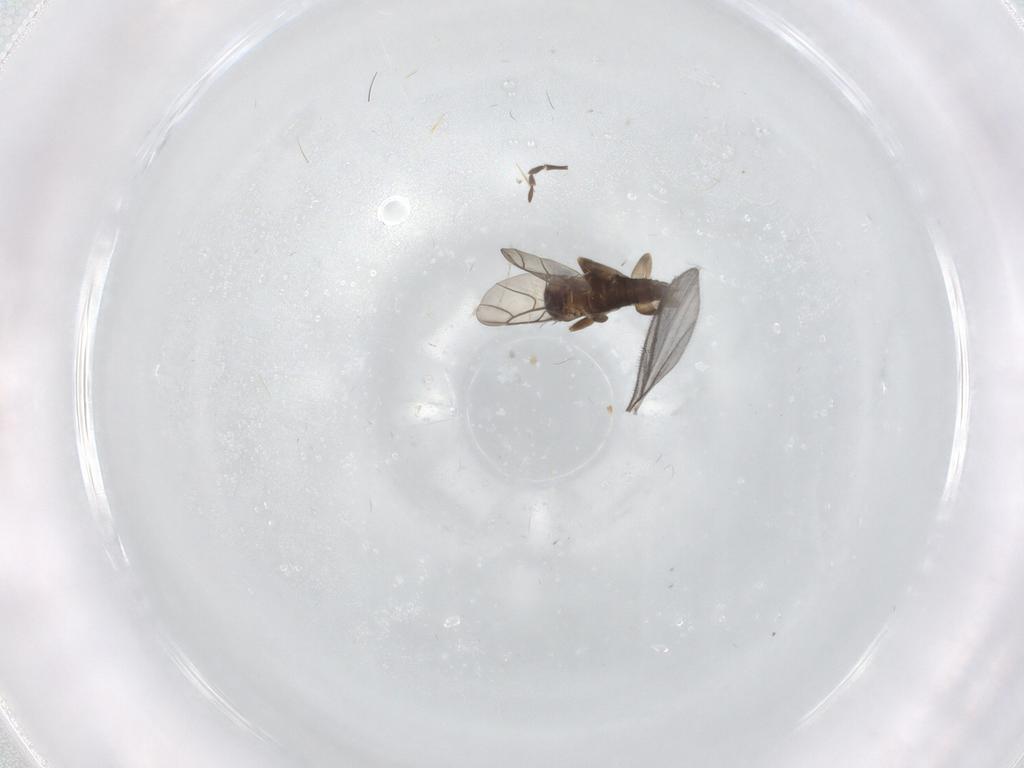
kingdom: Animalia
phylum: Arthropoda
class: Insecta
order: Diptera
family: Phoridae
